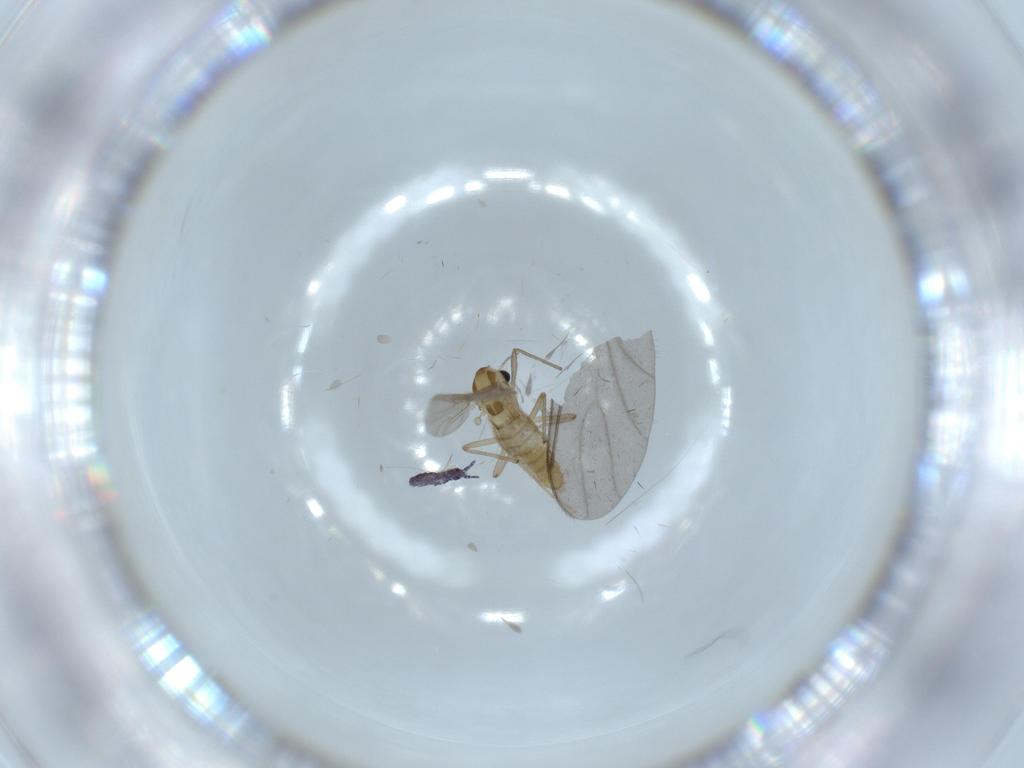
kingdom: Animalia
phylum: Arthropoda
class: Insecta
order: Diptera
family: Chironomidae
